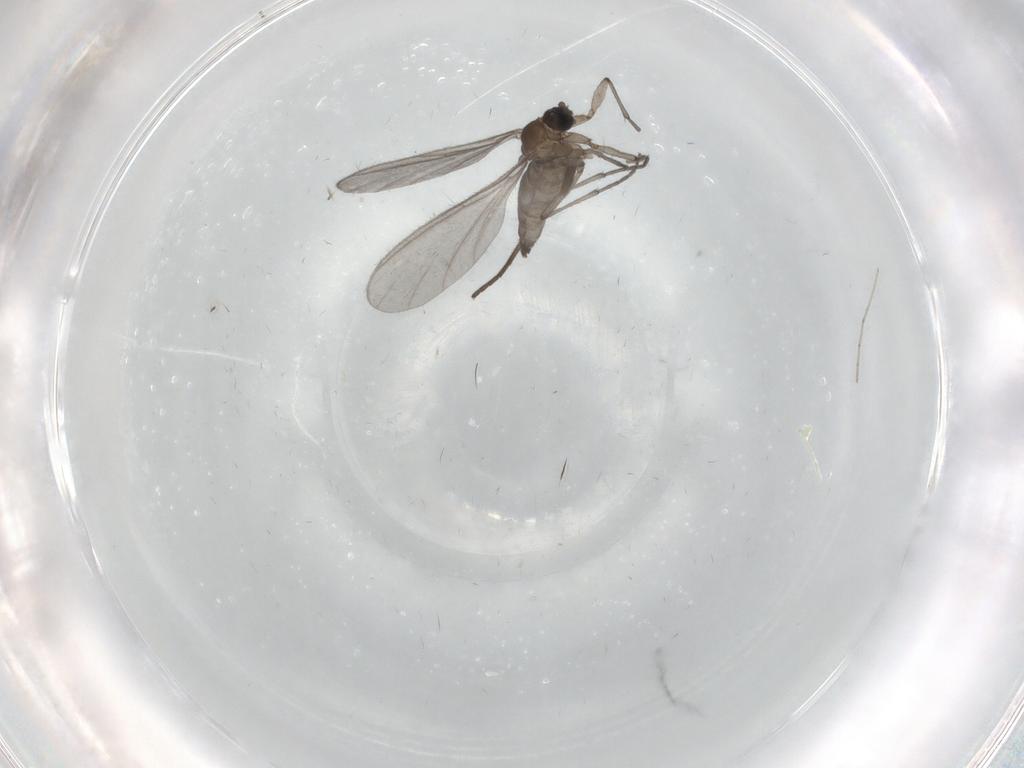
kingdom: Animalia
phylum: Arthropoda
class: Insecta
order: Diptera
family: Sciaridae
